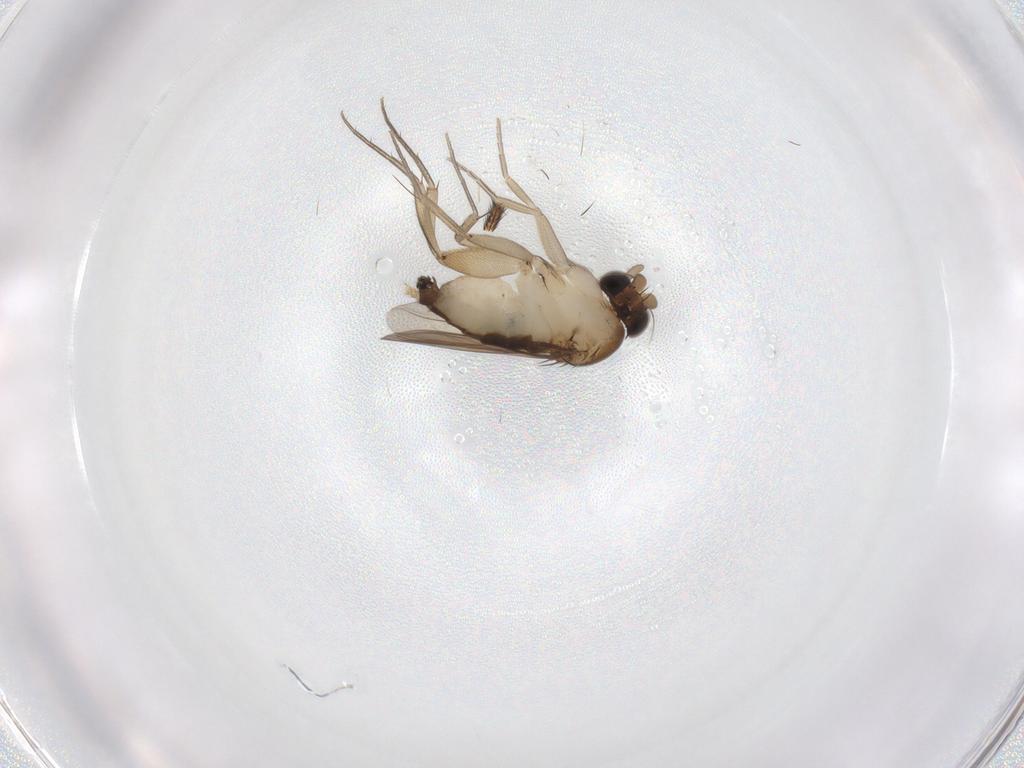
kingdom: Animalia
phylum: Arthropoda
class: Insecta
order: Diptera
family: Phoridae
